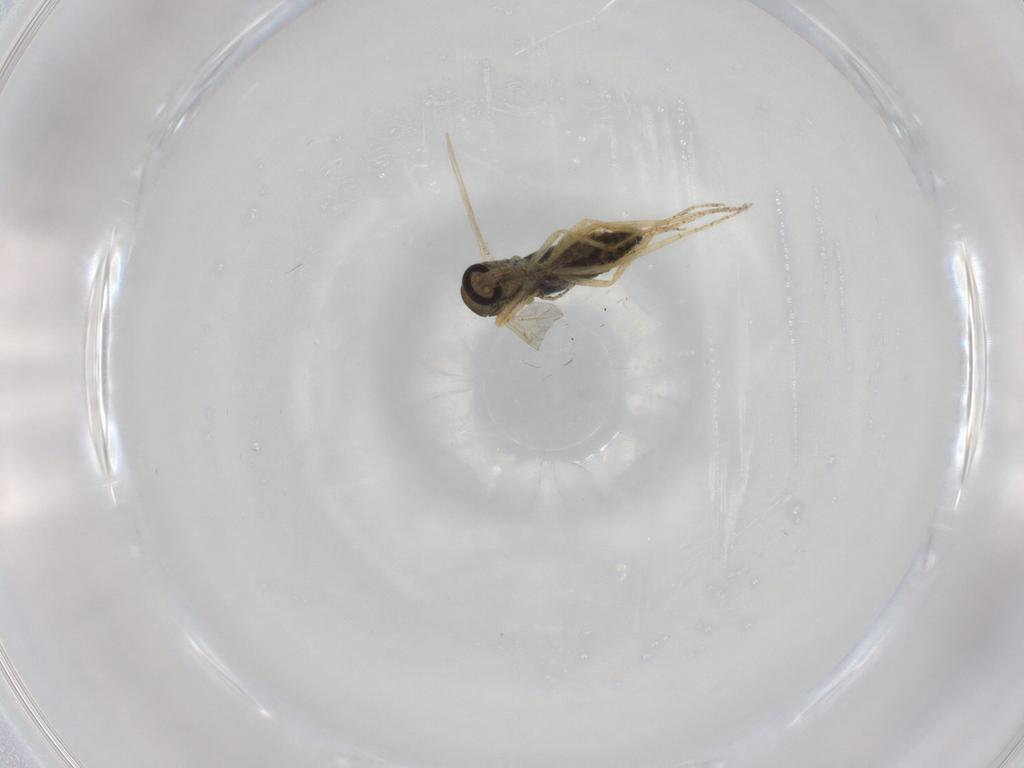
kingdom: Animalia
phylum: Arthropoda
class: Insecta
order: Diptera
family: Ceratopogonidae
